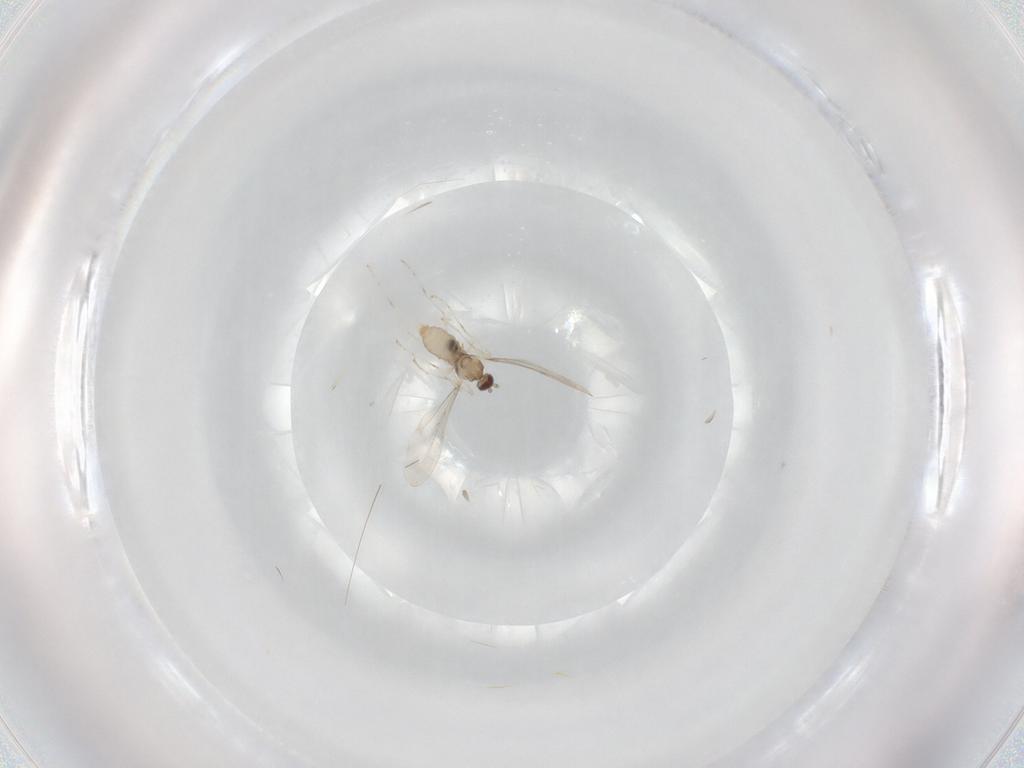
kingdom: Animalia
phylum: Arthropoda
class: Insecta
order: Diptera
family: Cecidomyiidae
